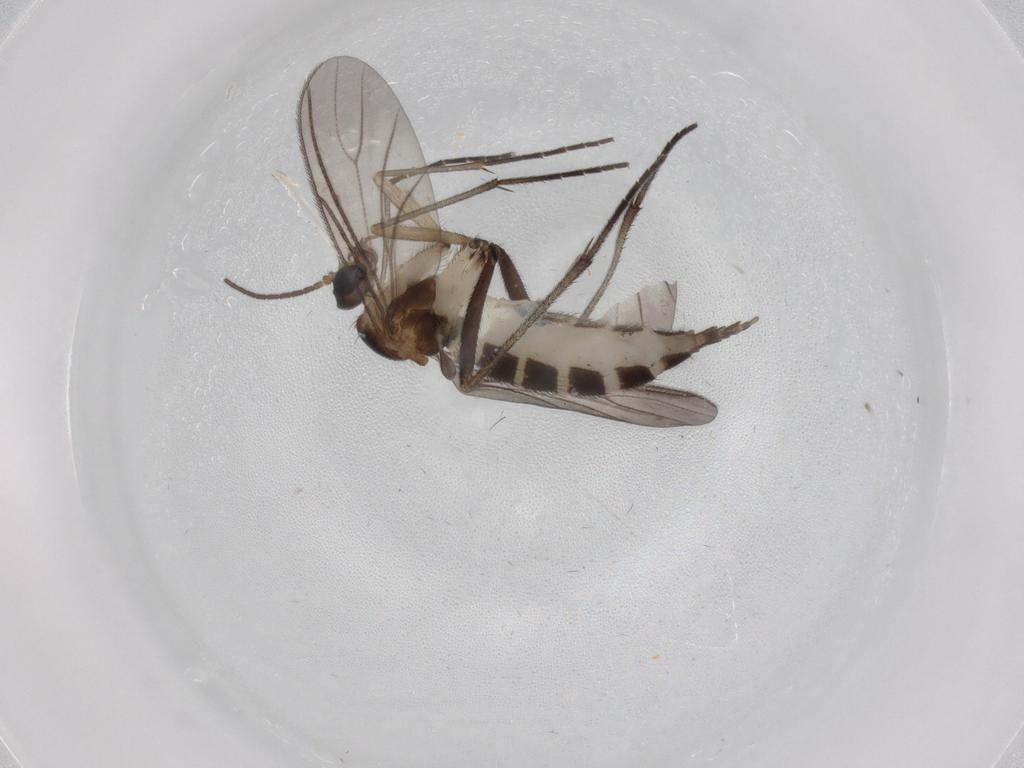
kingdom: Animalia
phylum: Arthropoda
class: Insecta
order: Diptera
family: Sciaridae
